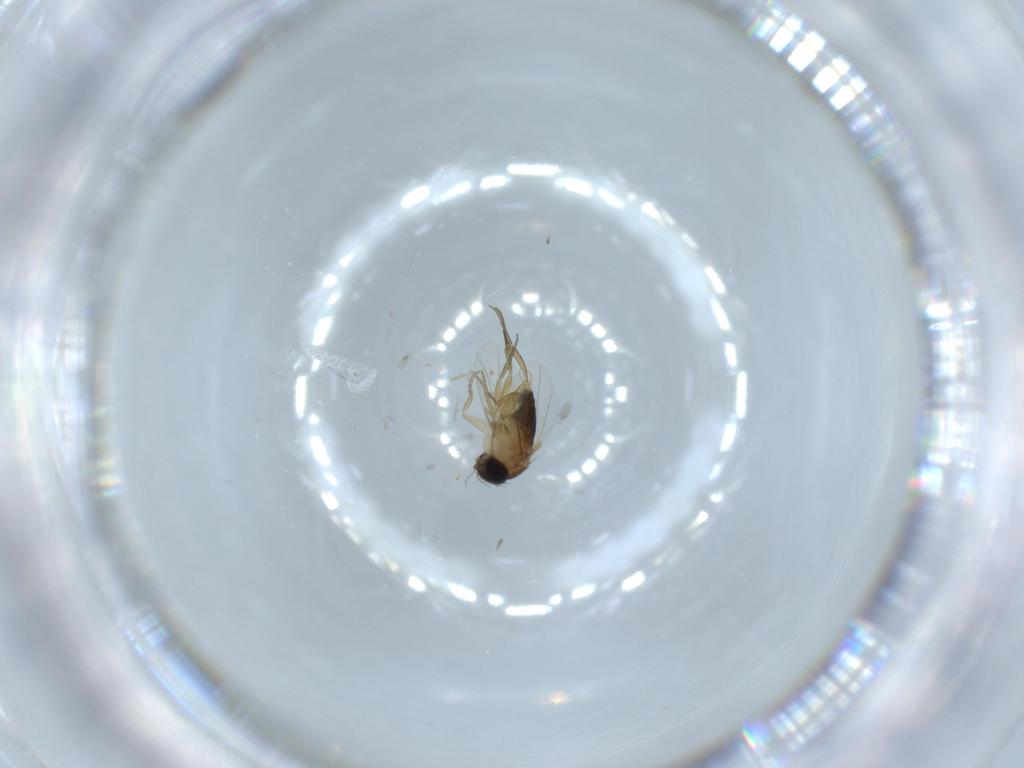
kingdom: Animalia
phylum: Arthropoda
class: Insecta
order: Diptera
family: Phoridae
